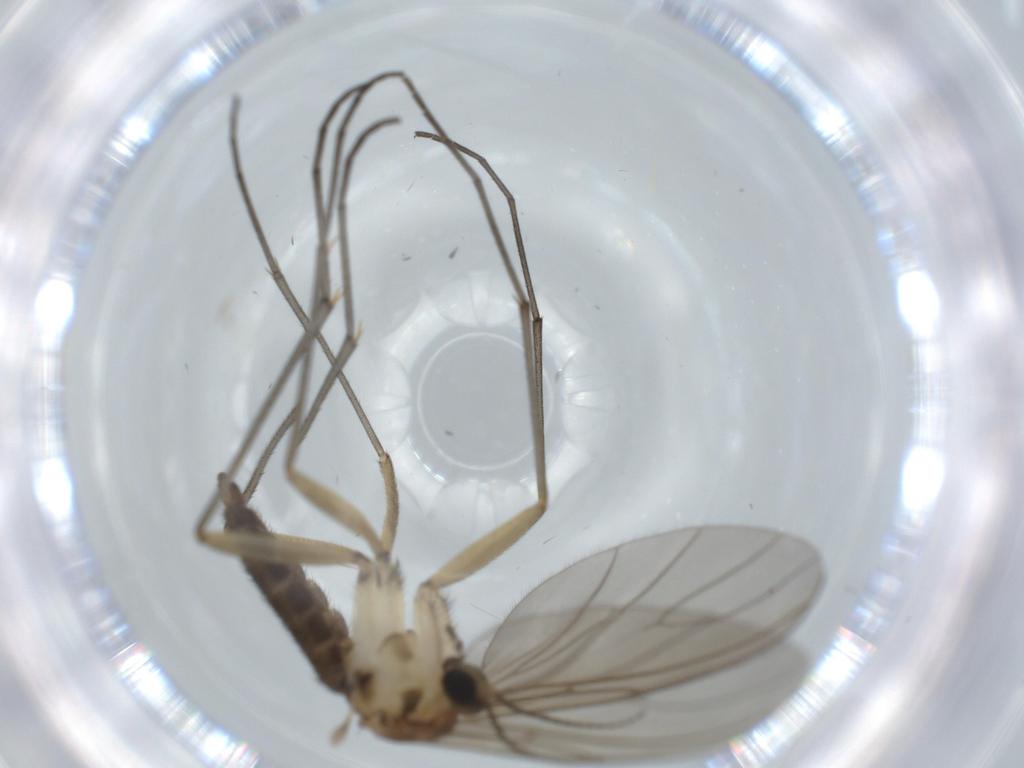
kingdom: Animalia
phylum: Arthropoda
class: Insecta
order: Diptera
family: Sciaridae
